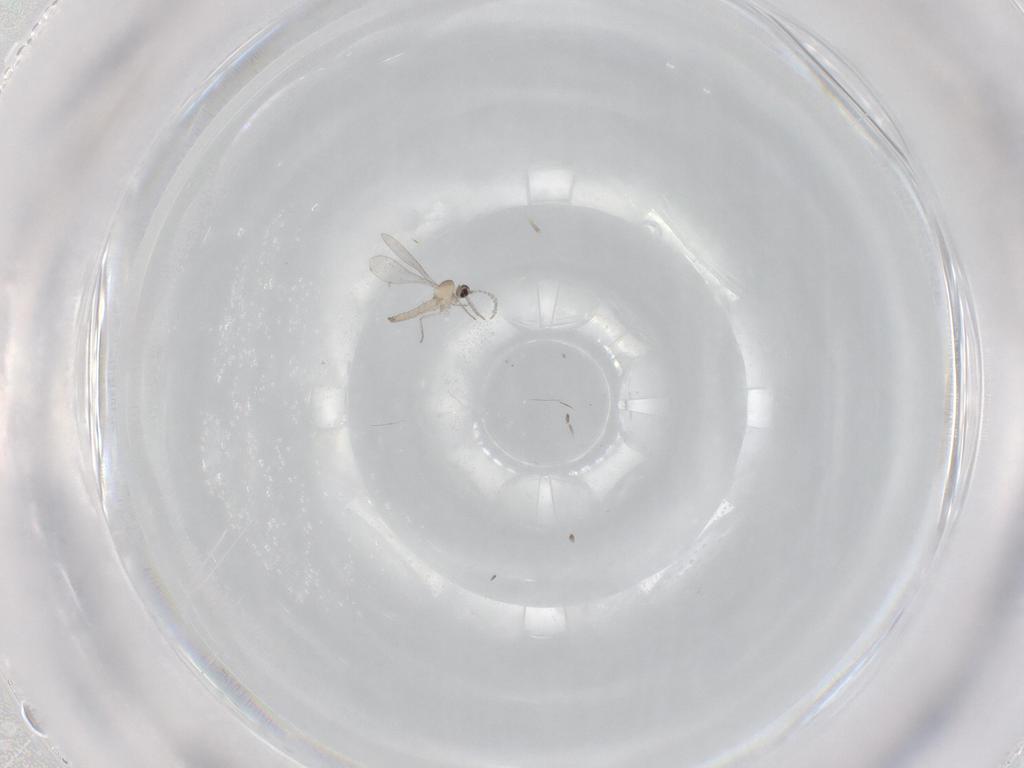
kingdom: Animalia
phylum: Arthropoda
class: Insecta
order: Diptera
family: Cecidomyiidae
